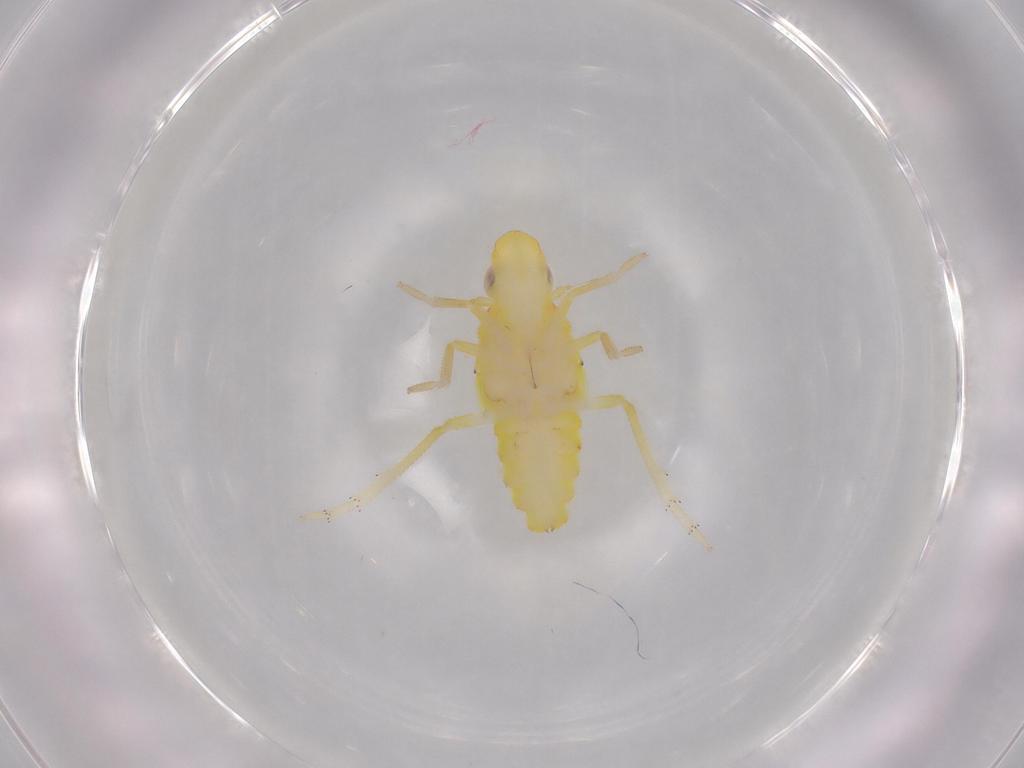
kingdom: Animalia
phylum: Arthropoda
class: Insecta
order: Hemiptera
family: Tropiduchidae
